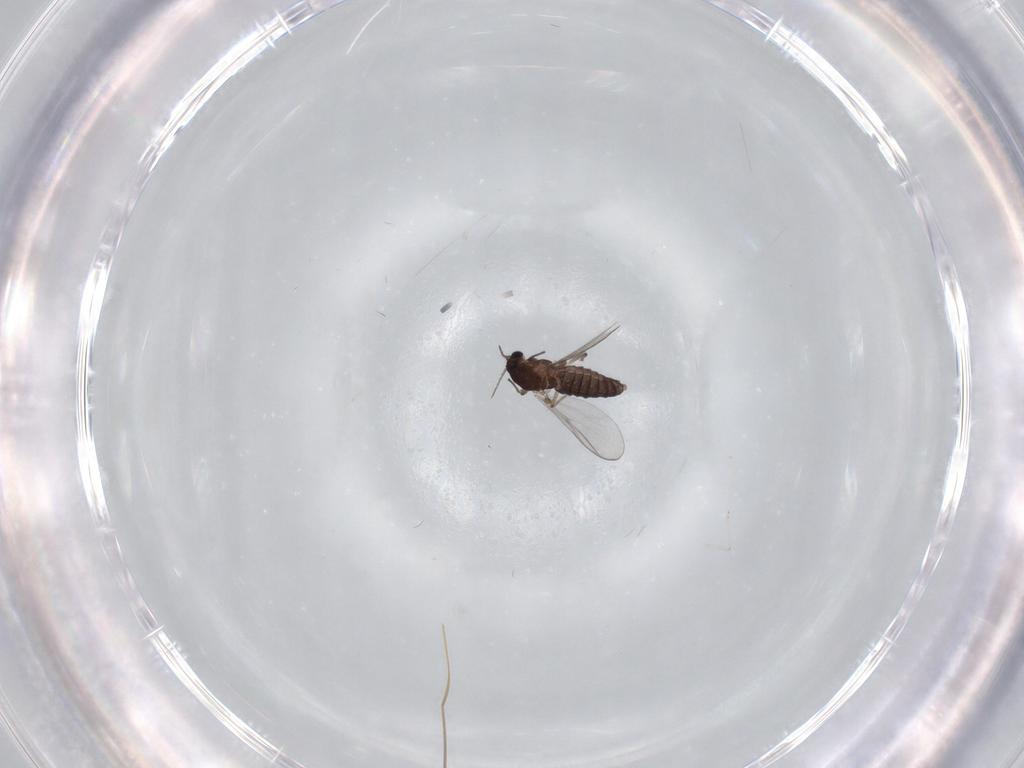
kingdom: Animalia
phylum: Arthropoda
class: Insecta
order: Diptera
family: Chironomidae
